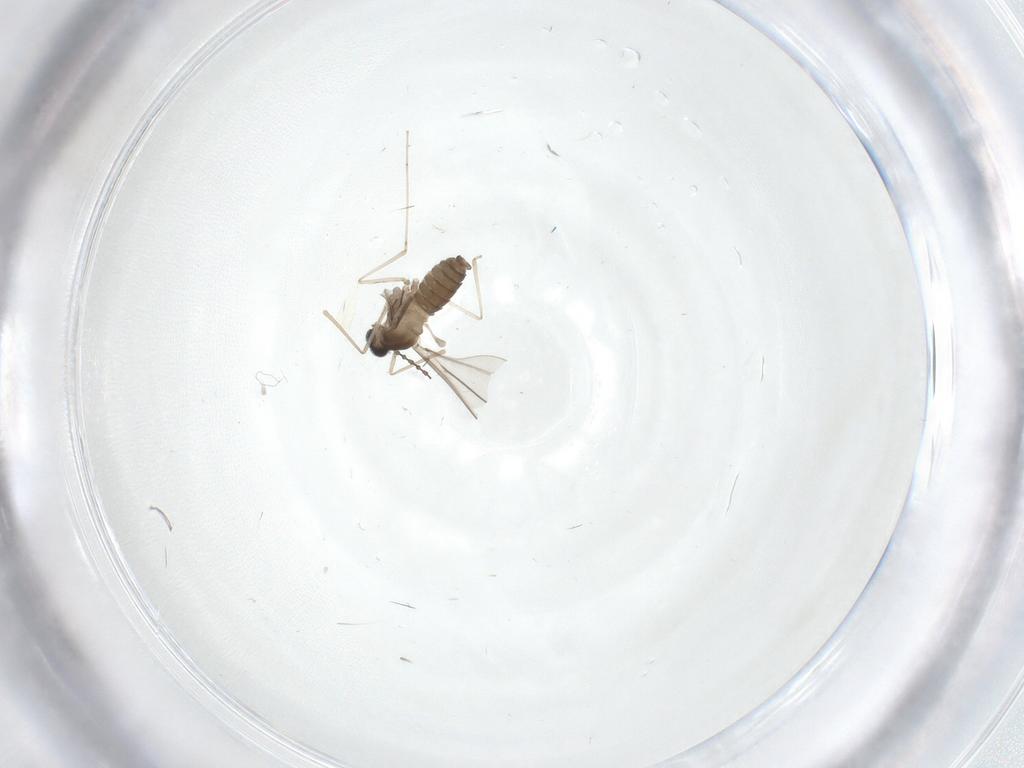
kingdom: Animalia
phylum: Arthropoda
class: Insecta
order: Diptera
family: Cecidomyiidae
